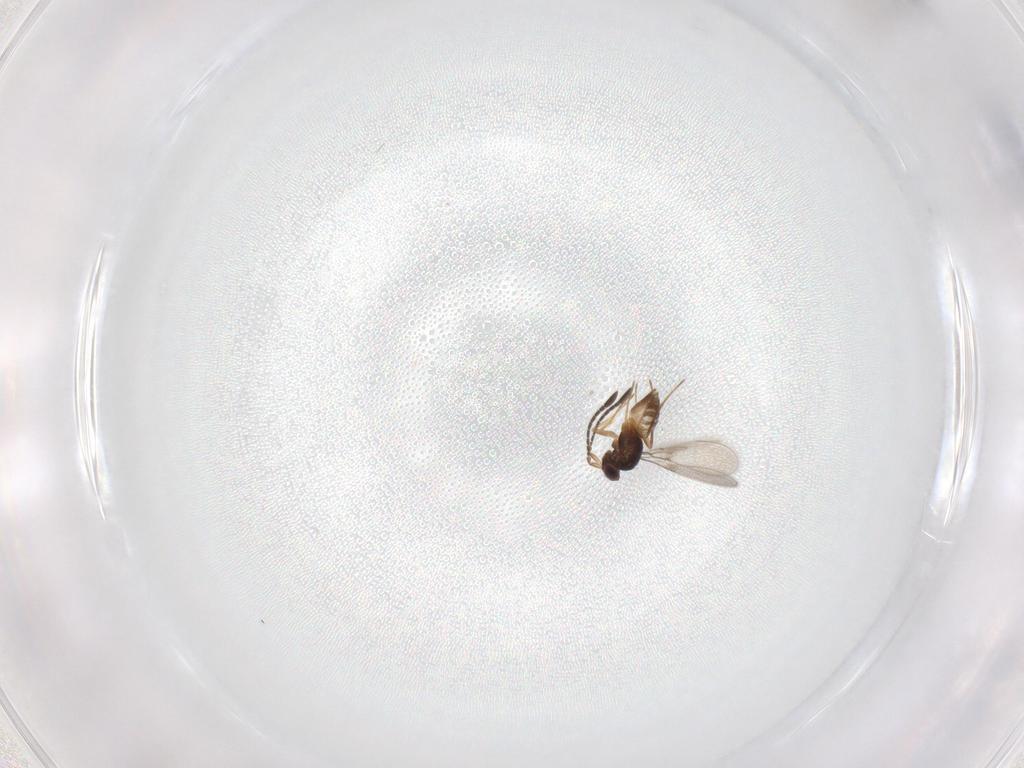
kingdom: Animalia
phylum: Arthropoda
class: Insecta
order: Hymenoptera
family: Mymaridae
